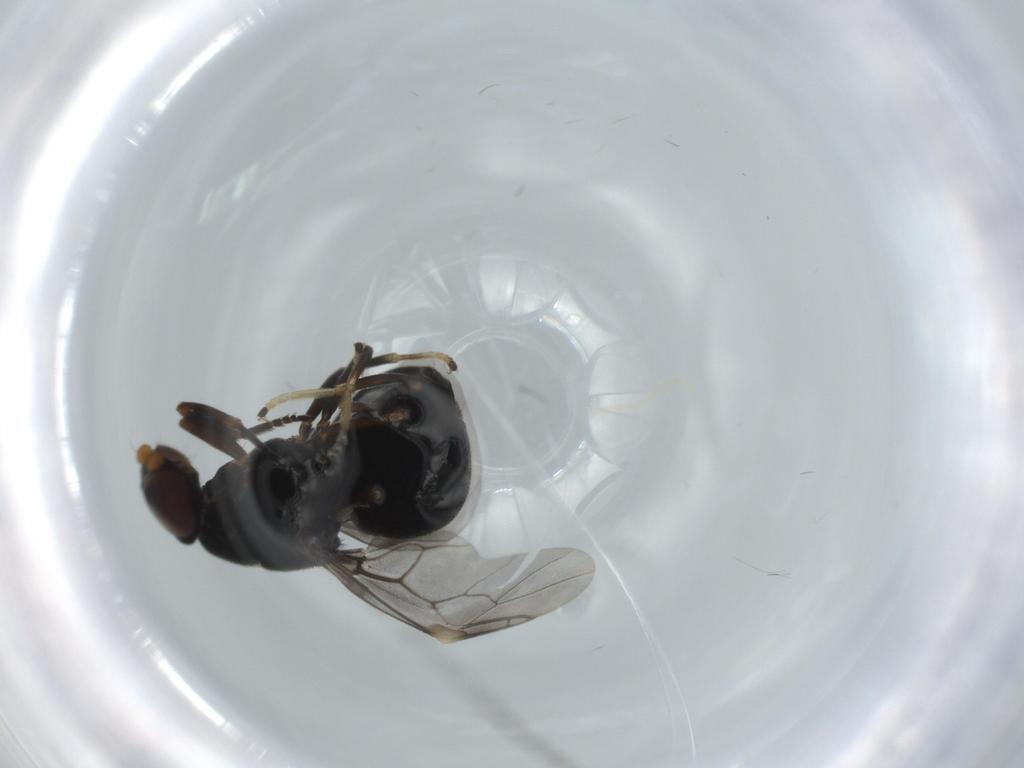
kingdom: Animalia
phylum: Arthropoda
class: Insecta
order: Diptera
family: Stratiomyidae
